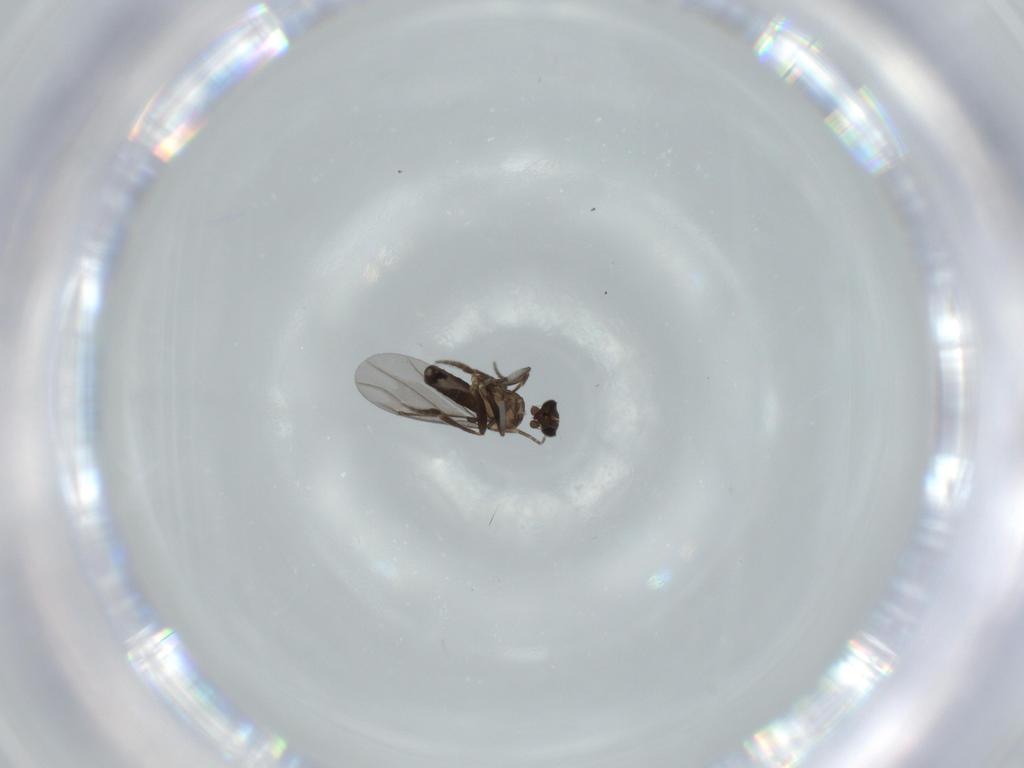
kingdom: Animalia
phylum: Arthropoda
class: Insecta
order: Diptera
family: Phoridae
